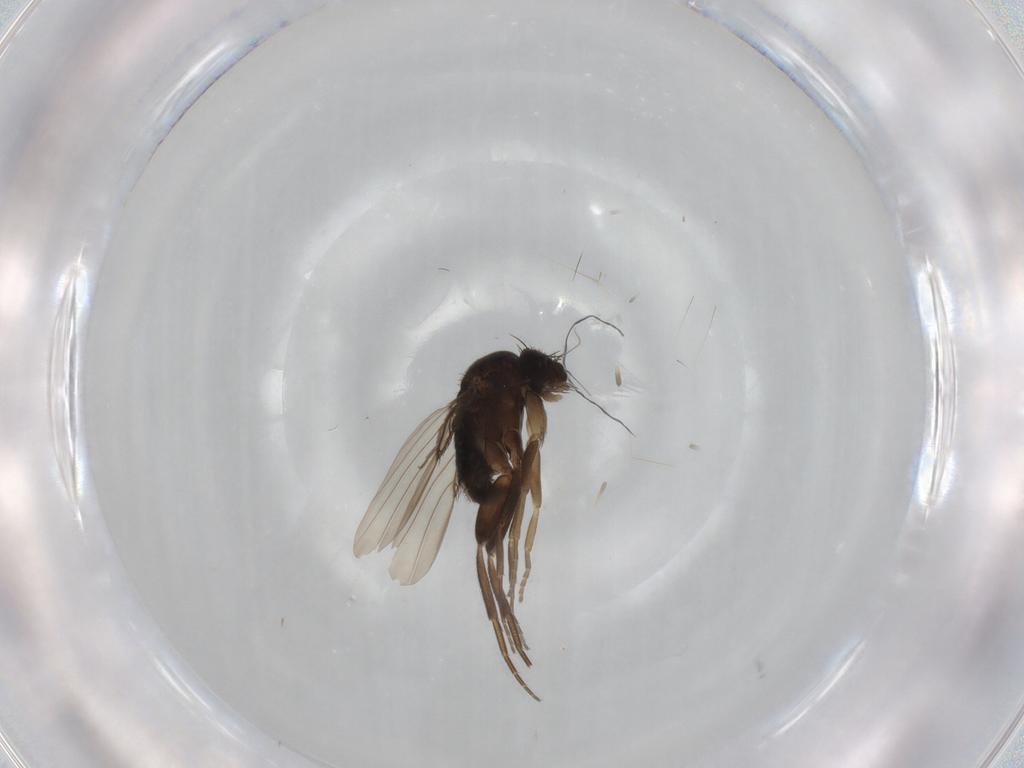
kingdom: Animalia
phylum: Arthropoda
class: Insecta
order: Diptera
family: Phoridae
